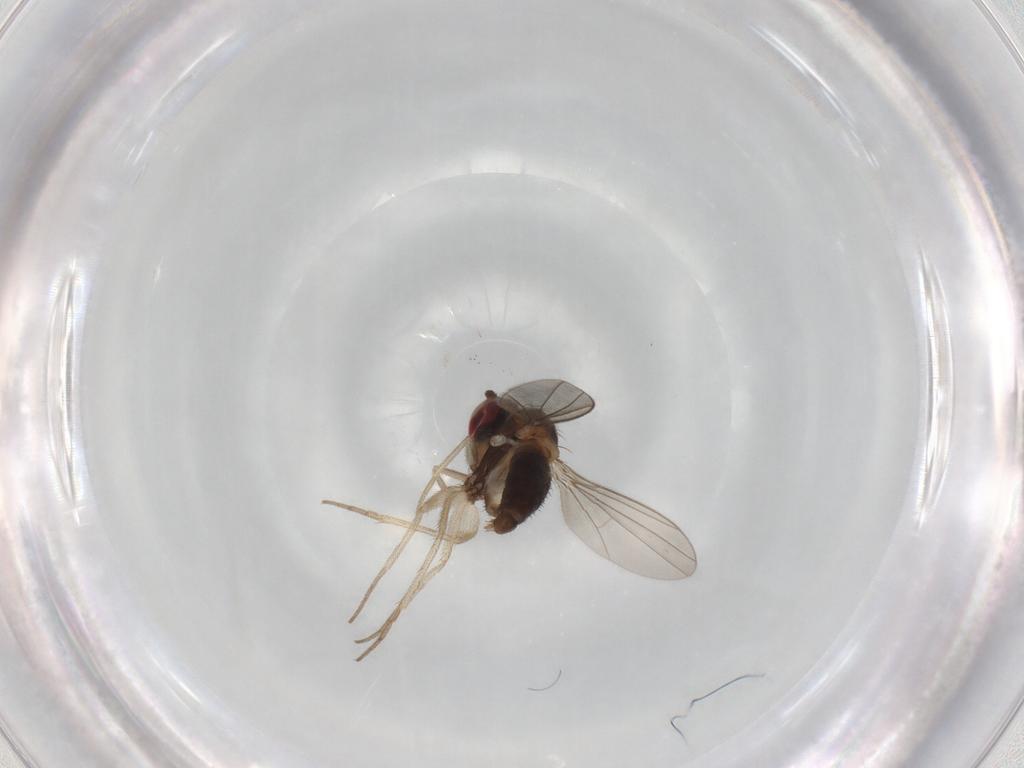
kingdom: Animalia
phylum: Arthropoda
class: Insecta
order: Diptera
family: Dolichopodidae
